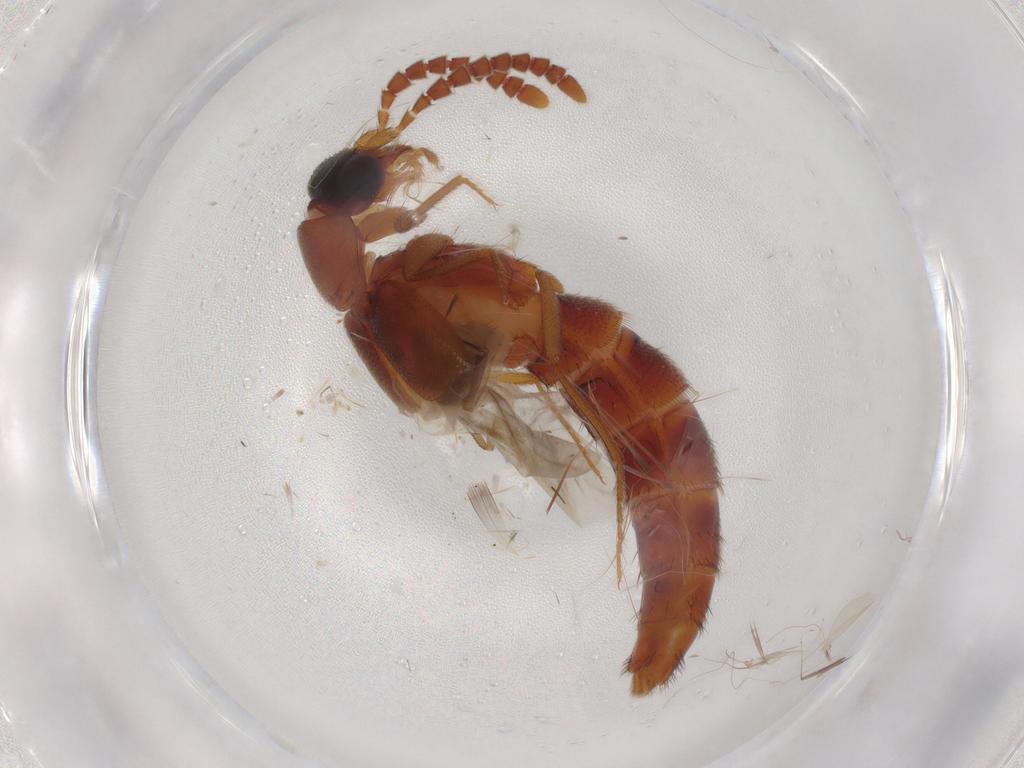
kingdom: Animalia
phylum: Arthropoda
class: Insecta
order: Coleoptera
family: Staphylinidae
